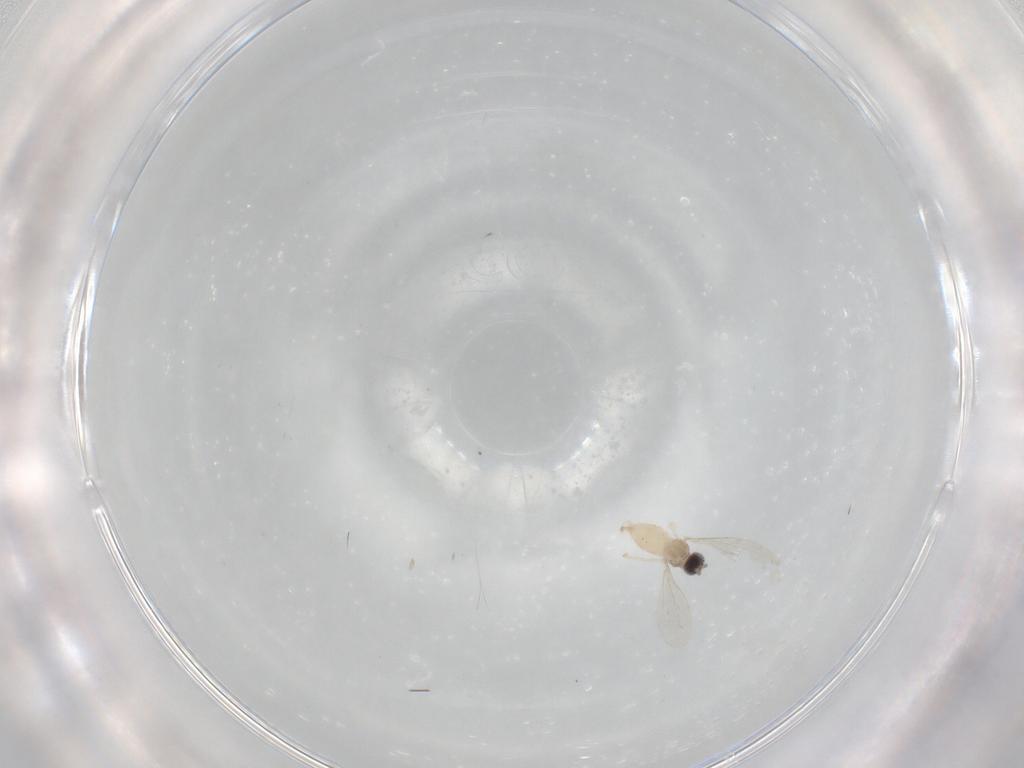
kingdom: Animalia
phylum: Arthropoda
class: Insecta
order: Diptera
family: Cecidomyiidae
